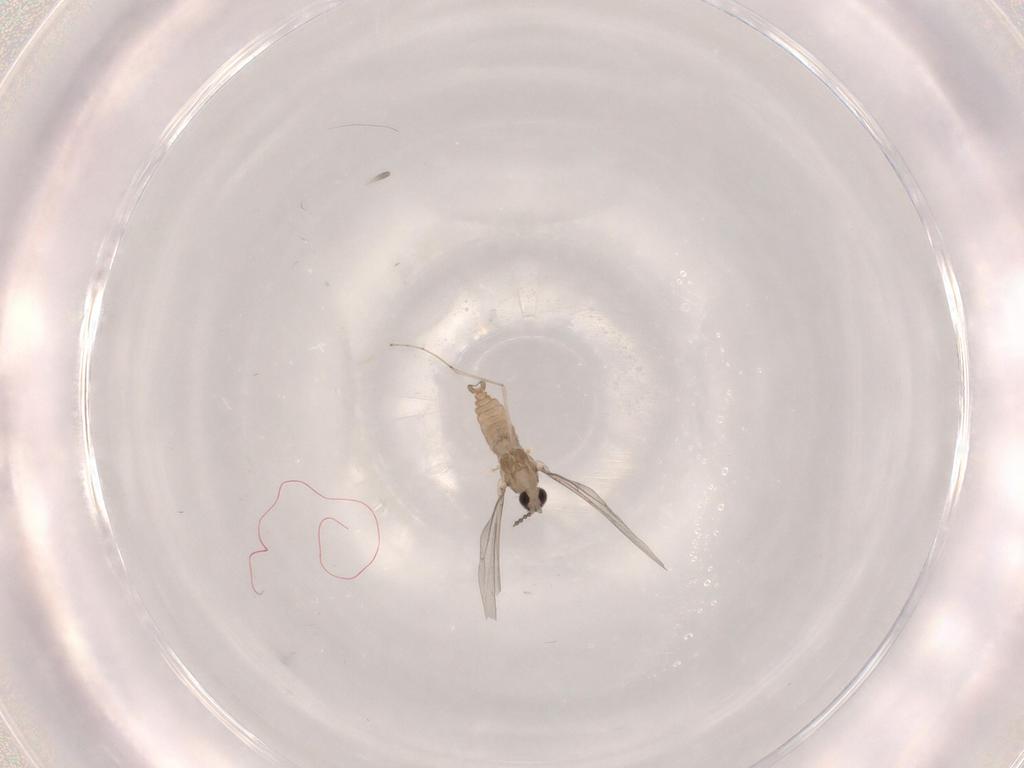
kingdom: Animalia
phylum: Arthropoda
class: Insecta
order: Diptera
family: Cecidomyiidae
